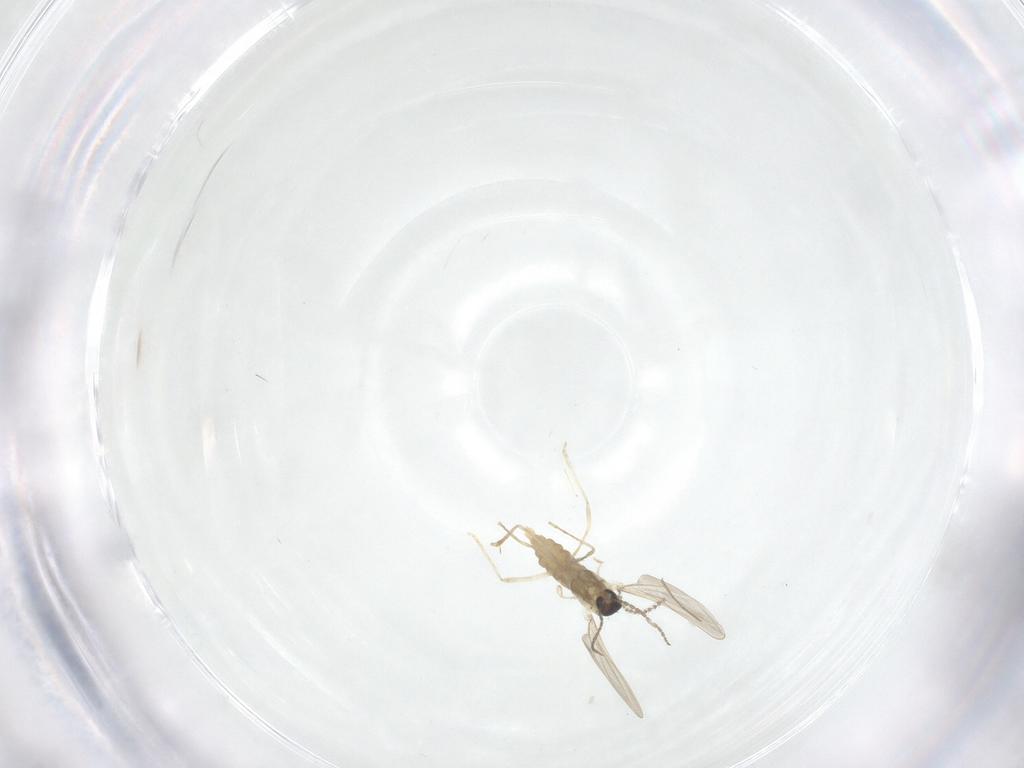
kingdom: Animalia
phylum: Arthropoda
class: Insecta
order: Diptera
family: Cecidomyiidae
